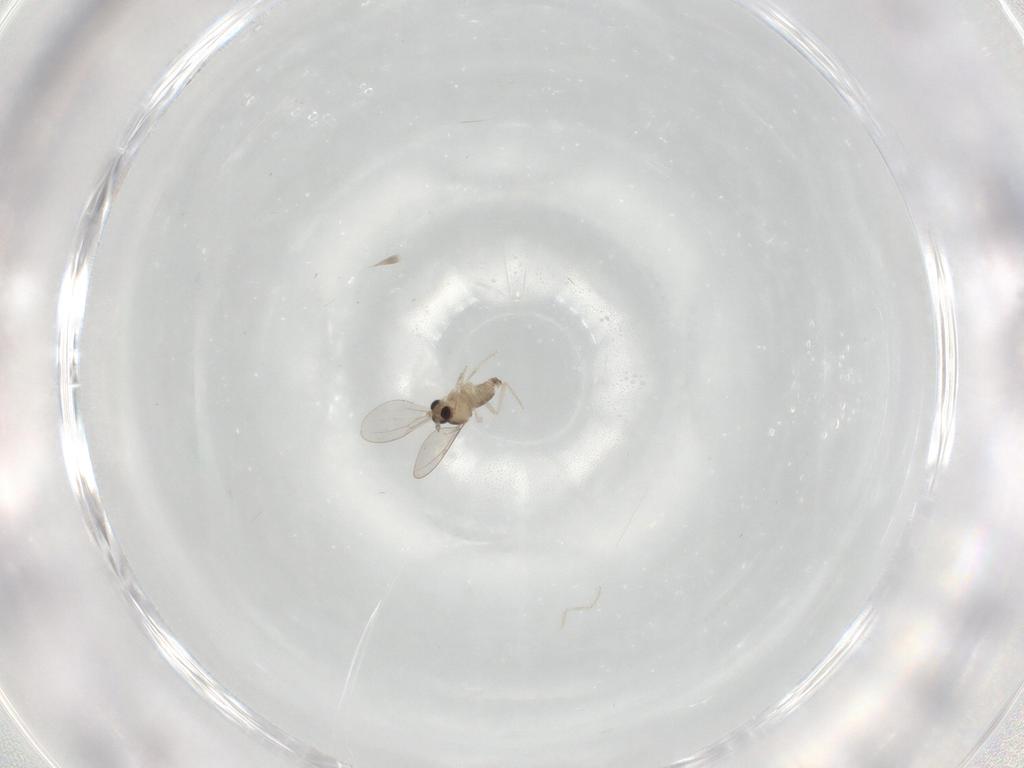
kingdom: Animalia
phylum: Arthropoda
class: Insecta
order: Diptera
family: Cecidomyiidae
